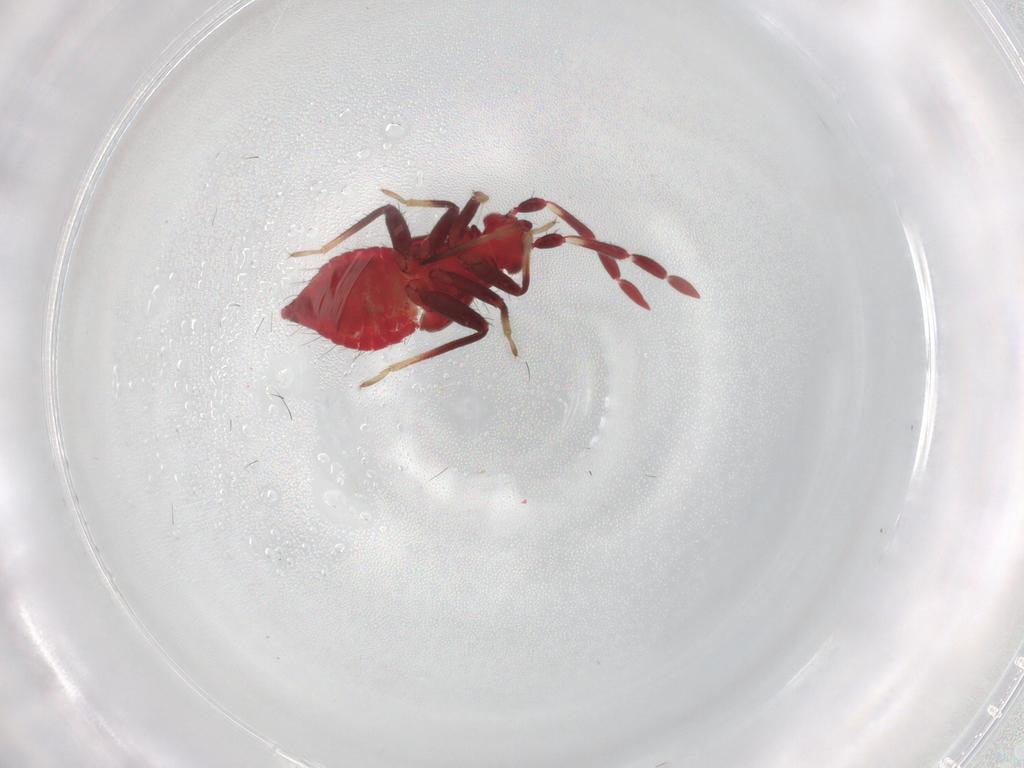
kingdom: Animalia
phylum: Arthropoda
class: Insecta
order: Hemiptera
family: Miridae
